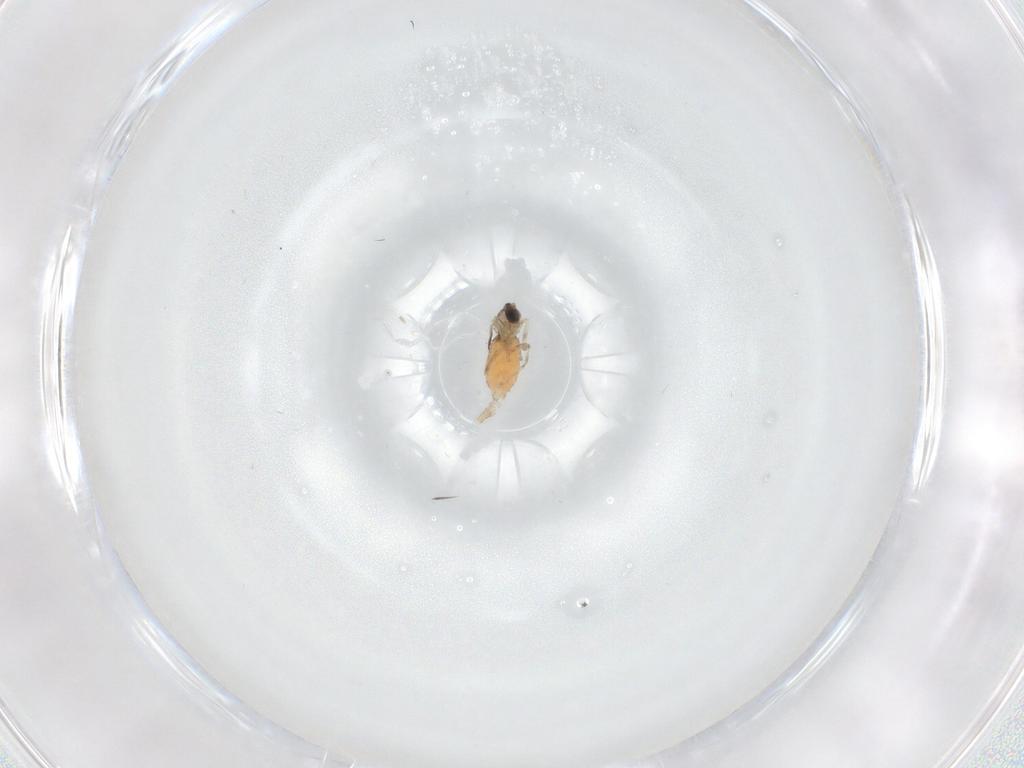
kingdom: Animalia
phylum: Arthropoda
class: Insecta
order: Diptera
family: Cecidomyiidae
